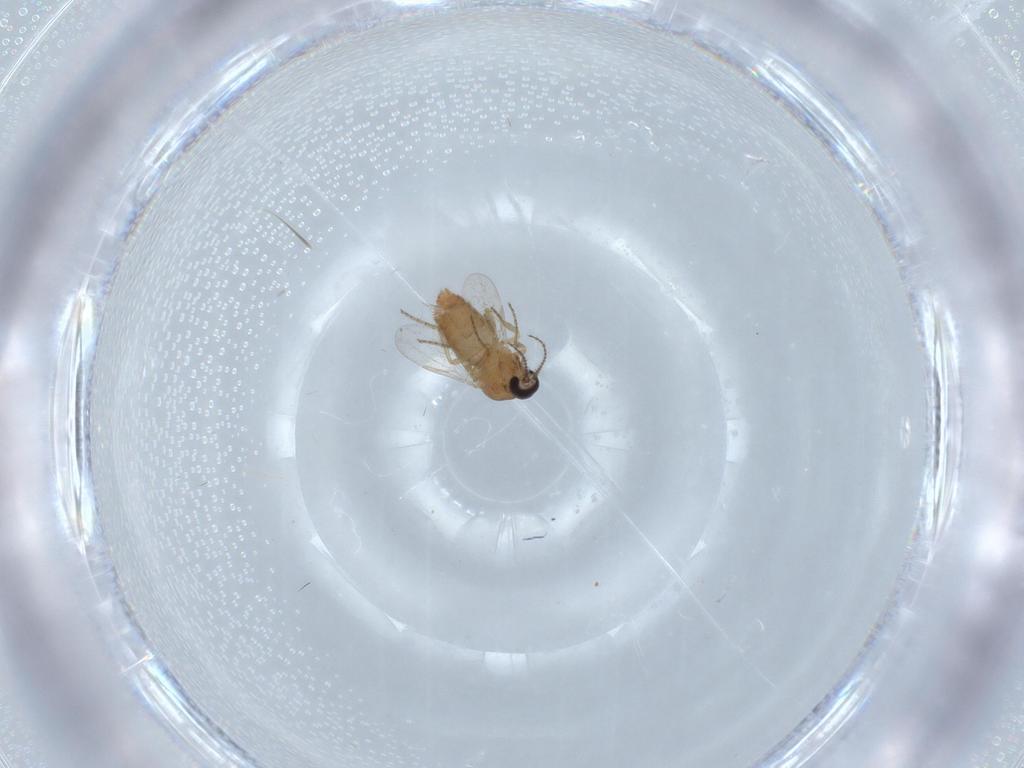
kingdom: Animalia
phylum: Arthropoda
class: Insecta
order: Diptera
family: Ceratopogonidae
